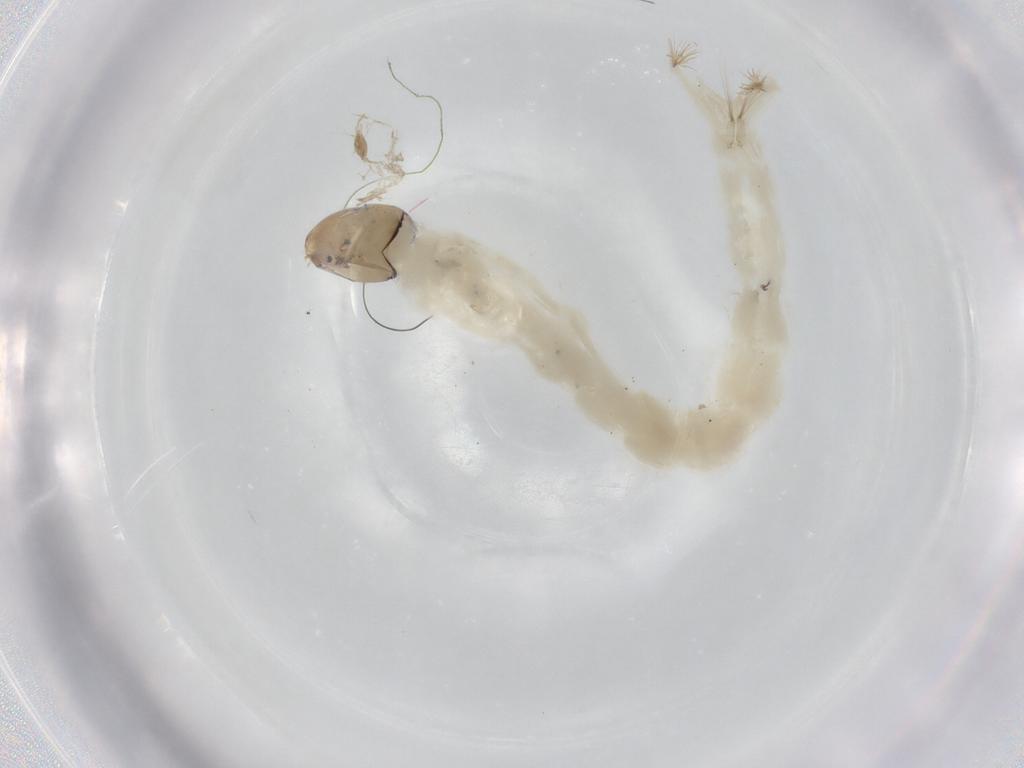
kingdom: Animalia
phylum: Arthropoda
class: Insecta
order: Diptera
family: Chironomidae
